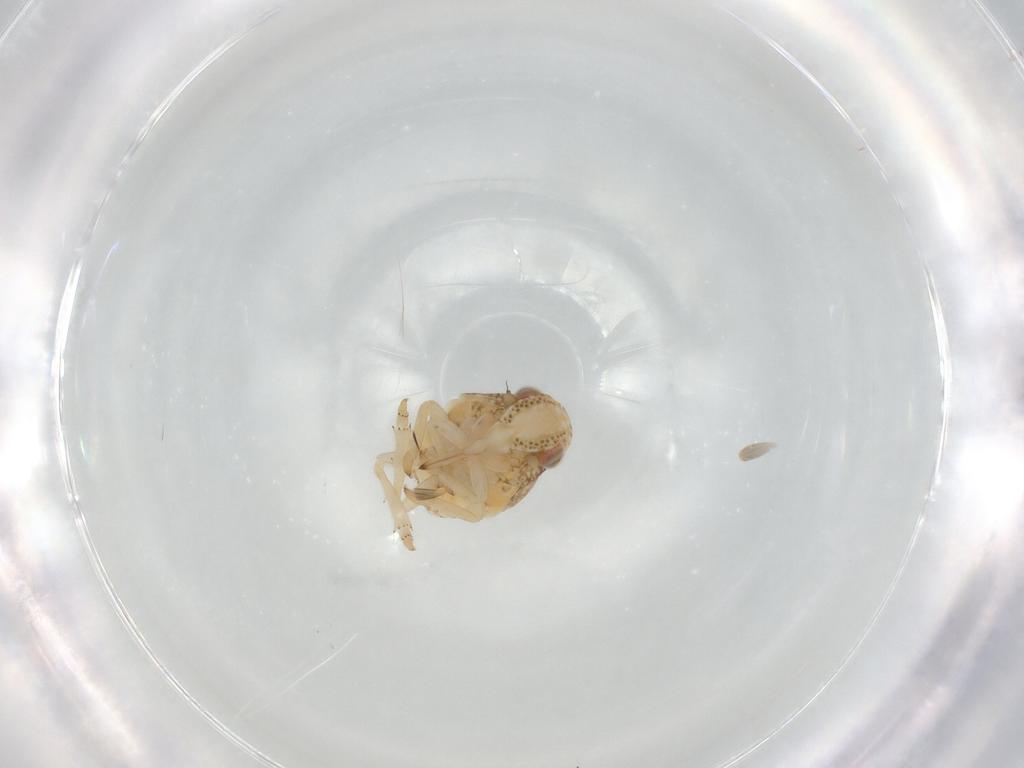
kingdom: Animalia
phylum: Arthropoda
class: Insecta
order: Hemiptera
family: Acanaloniidae
